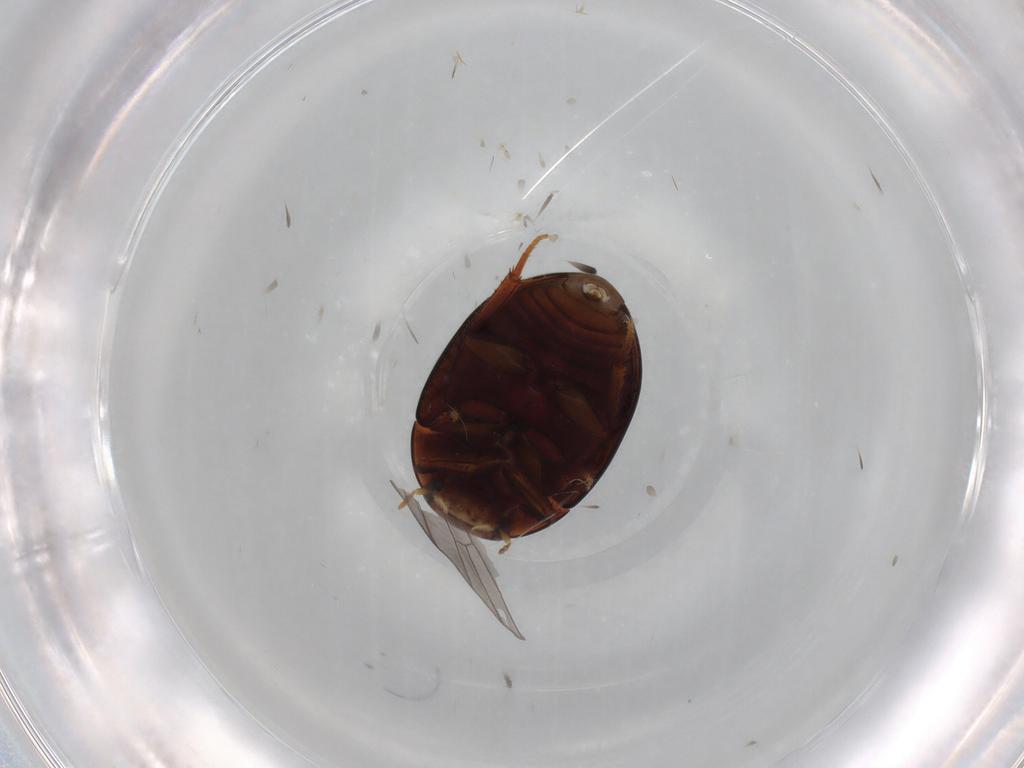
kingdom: Animalia
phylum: Arthropoda
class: Insecta
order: Coleoptera
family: Hydrophilidae
